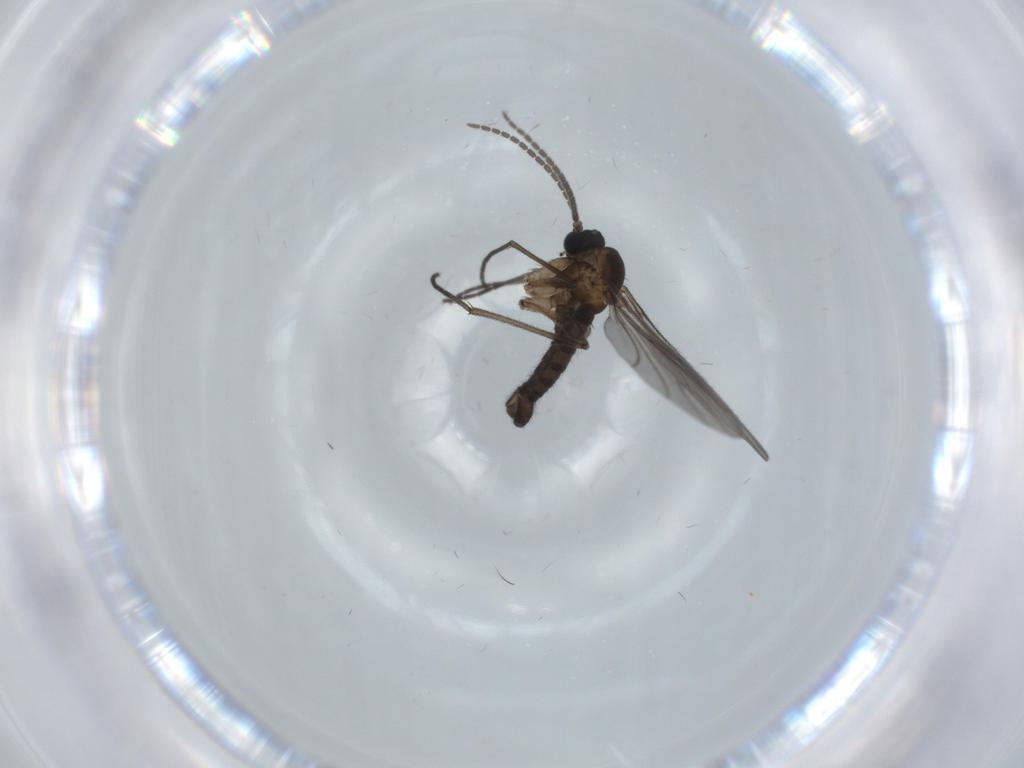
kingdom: Animalia
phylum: Arthropoda
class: Insecta
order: Diptera
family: Sciaridae
